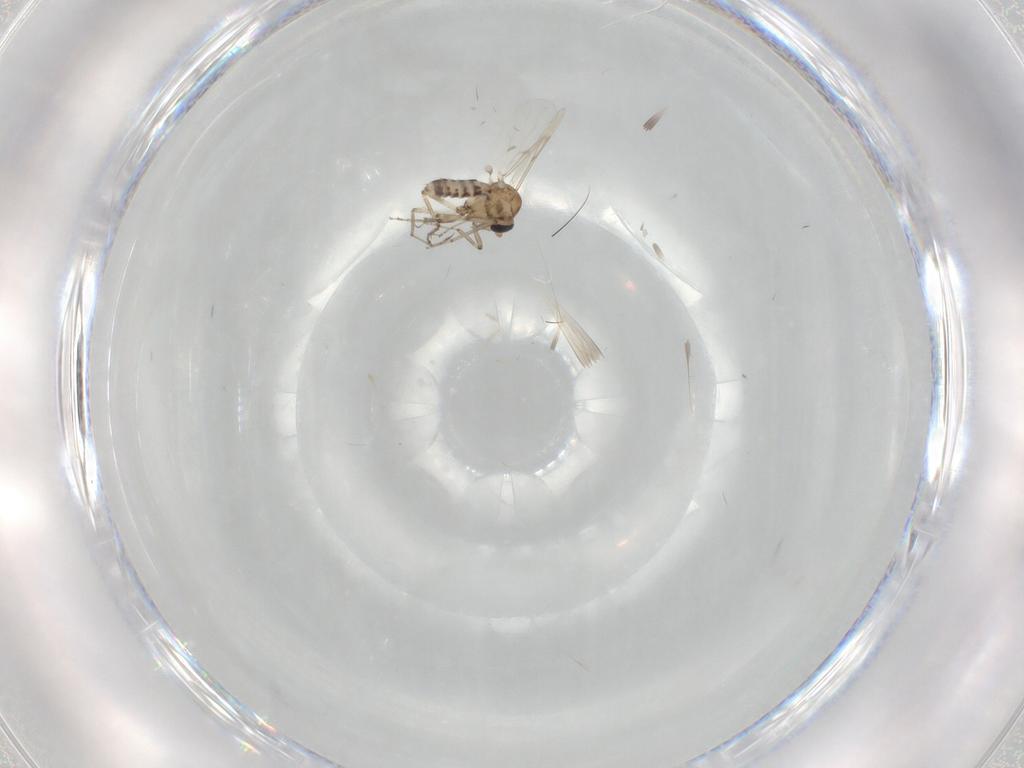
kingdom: Animalia
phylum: Arthropoda
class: Insecta
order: Diptera
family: Ceratopogonidae
